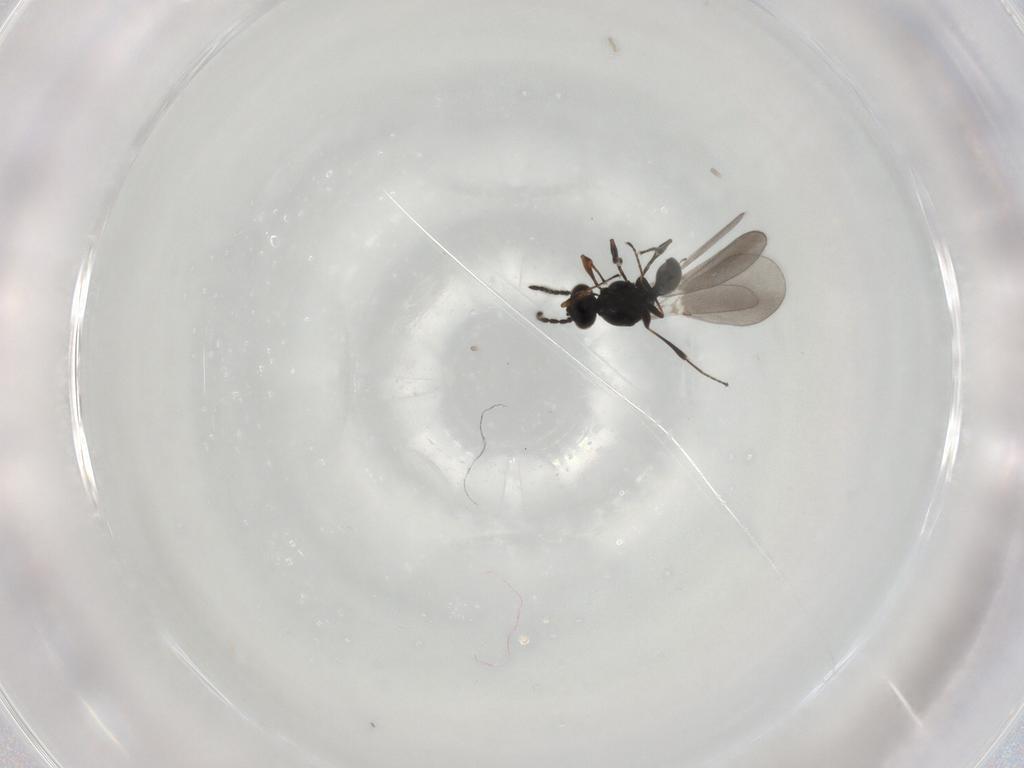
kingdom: Animalia
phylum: Arthropoda
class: Insecta
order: Hymenoptera
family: Platygastridae
